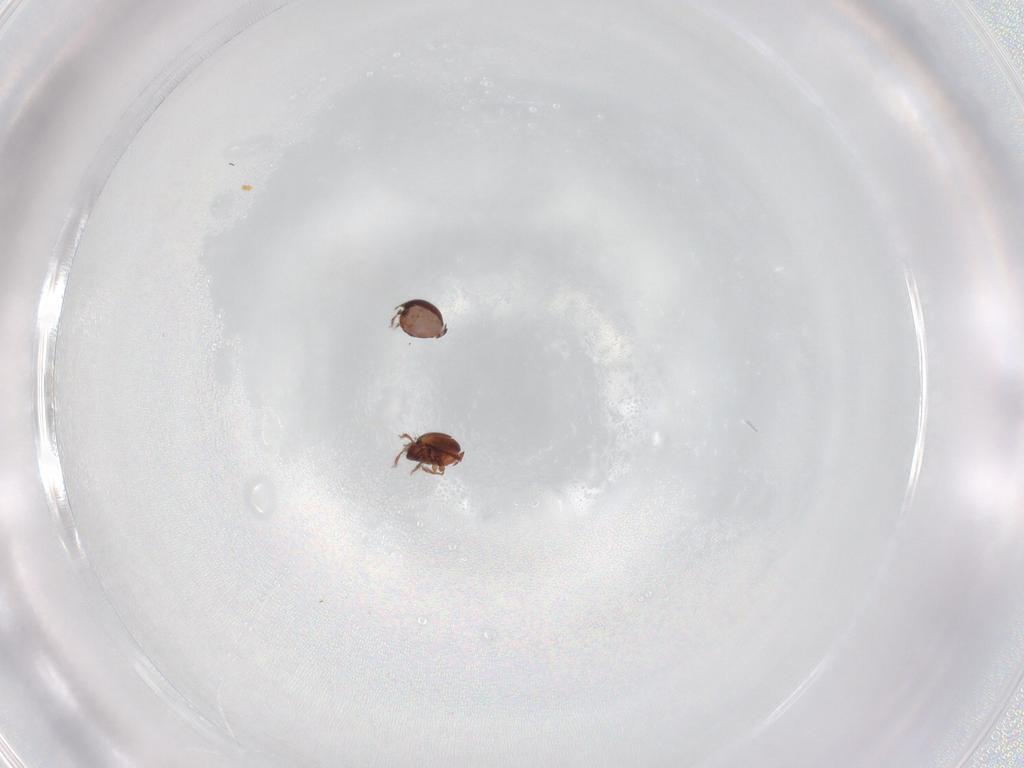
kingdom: Animalia
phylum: Arthropoda
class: Arachnida
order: Sarcoptiformes
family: Ceratozetidae
